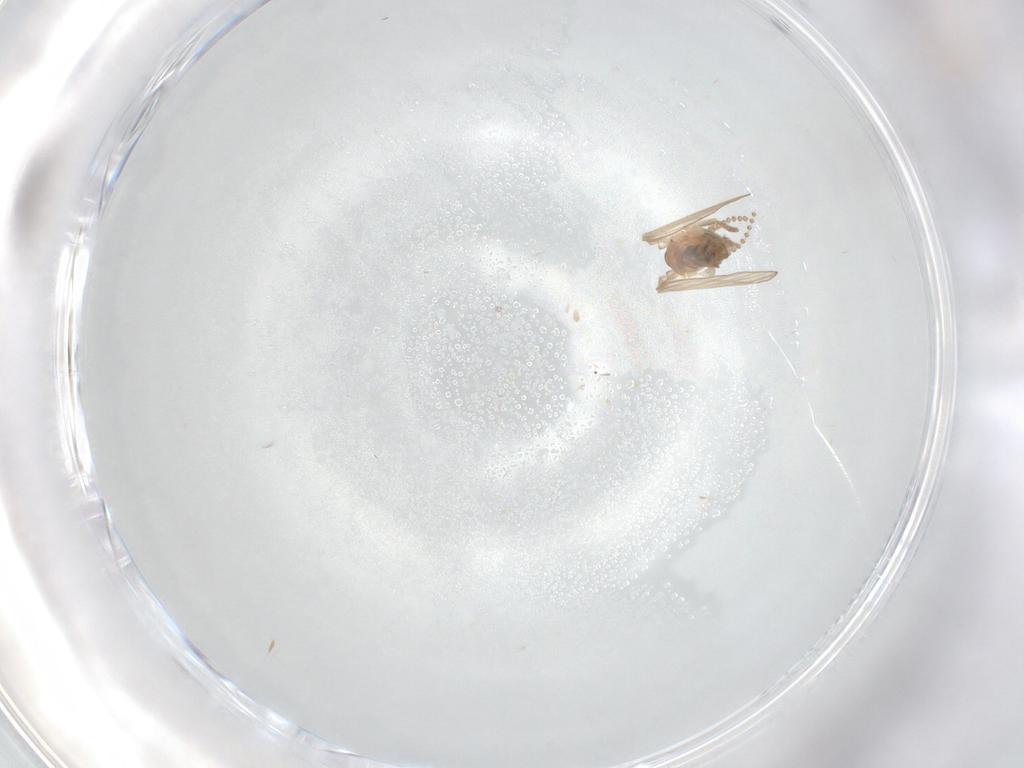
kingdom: Animalia
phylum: Arthropoda
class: Insecta
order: Diptera
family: Psychodidae
